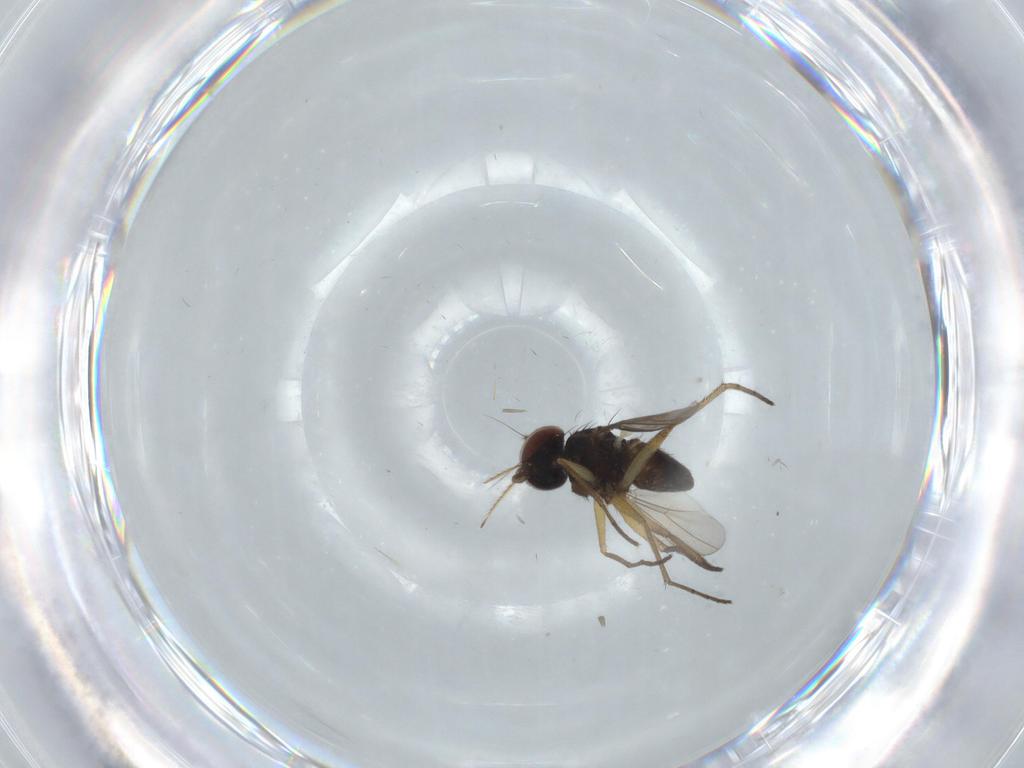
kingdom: Animalia
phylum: Arthropoda
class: Insecta
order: Diptera
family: Dolichopodidae
